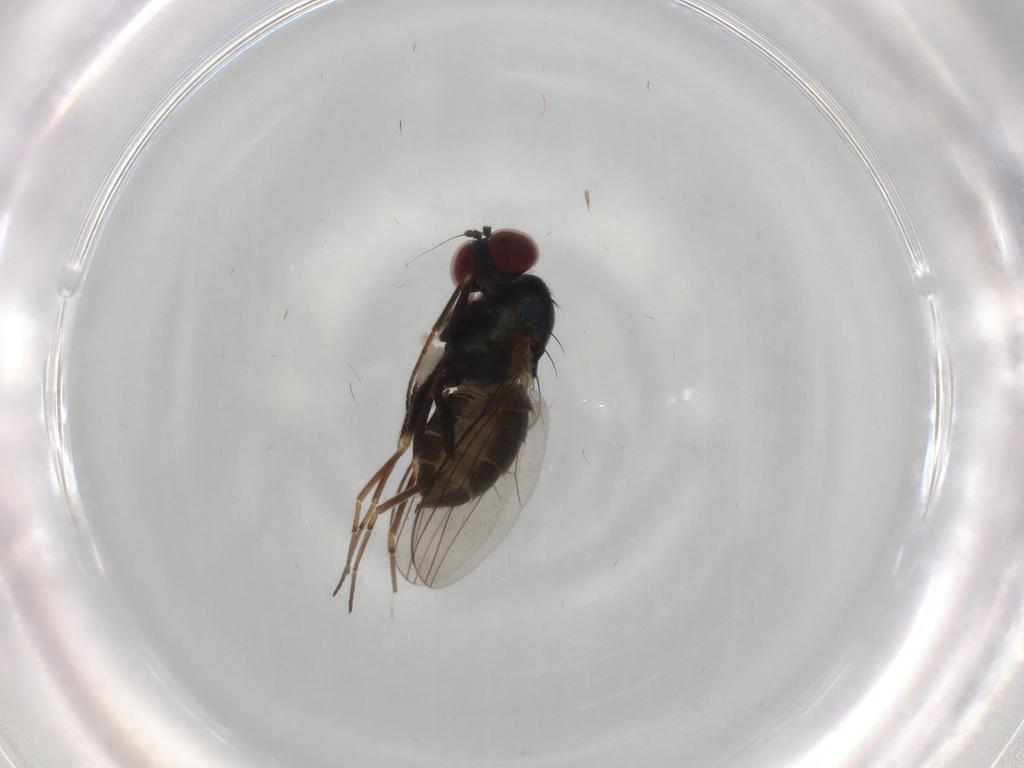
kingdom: Animalia
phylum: Arthropoda
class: Insecta
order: Diptera
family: Dolichopodidae
